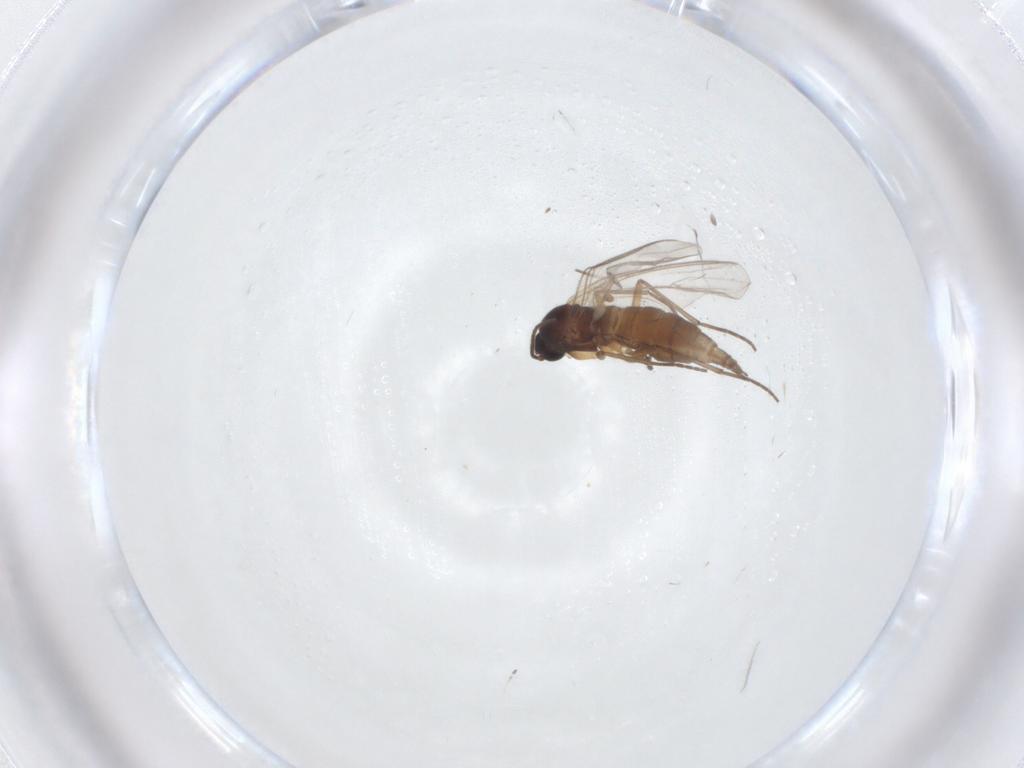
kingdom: Animalia
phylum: Arthropoda
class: Insecta
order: Diptera
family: Sciaridae
